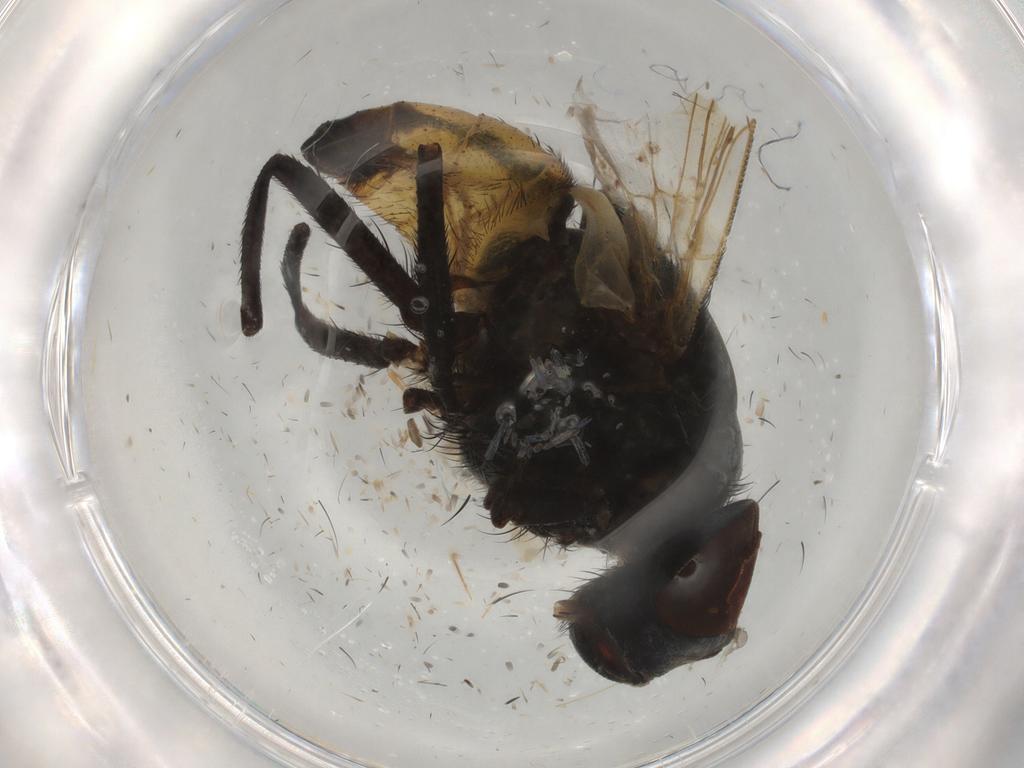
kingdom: Animalia
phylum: Arthropoda
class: Insecta
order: Diptera
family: Muscidae
